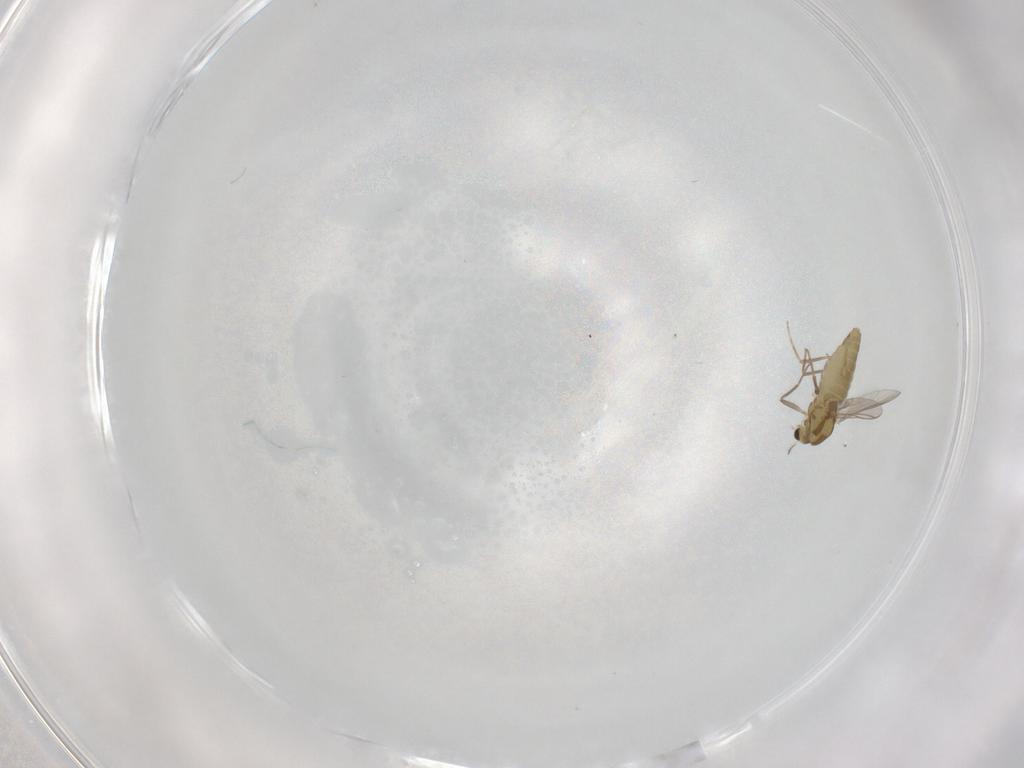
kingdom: Animalia
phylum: Arthropoda
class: Insecta
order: Diptera
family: Chironomidae
